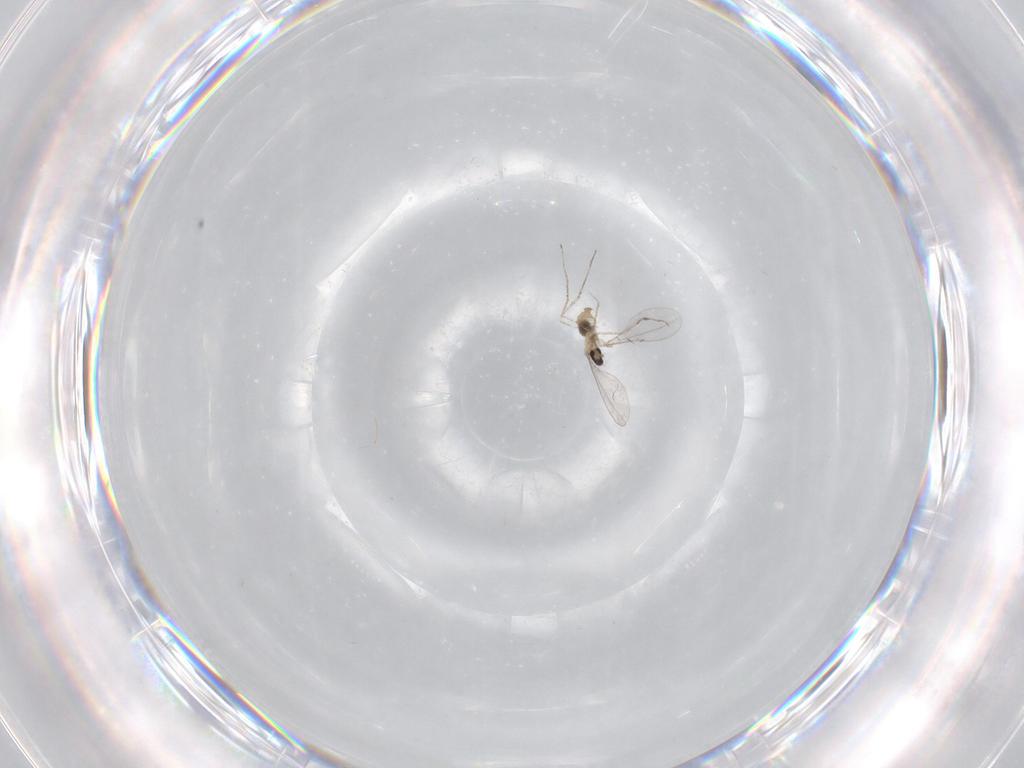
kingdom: Animalia
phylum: Arthropoda
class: Insecta
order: Diptera
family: Cecidomyiidae
